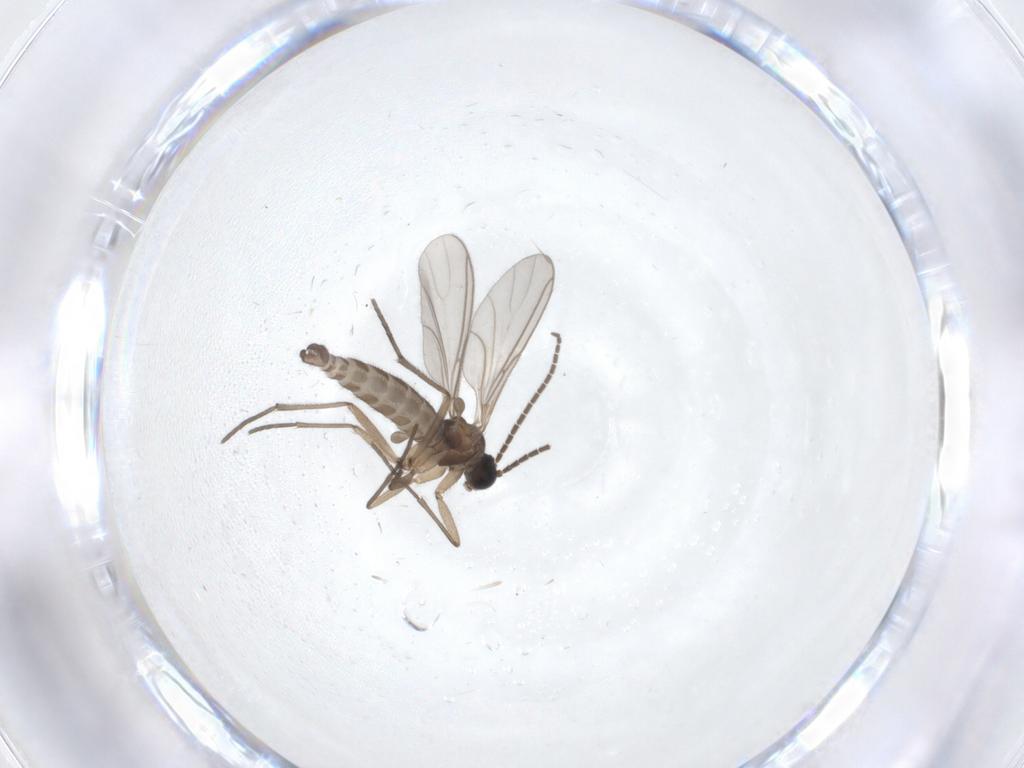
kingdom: Animalia
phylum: Arthropoda
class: Insecta
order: Diptera
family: Sciaridae
